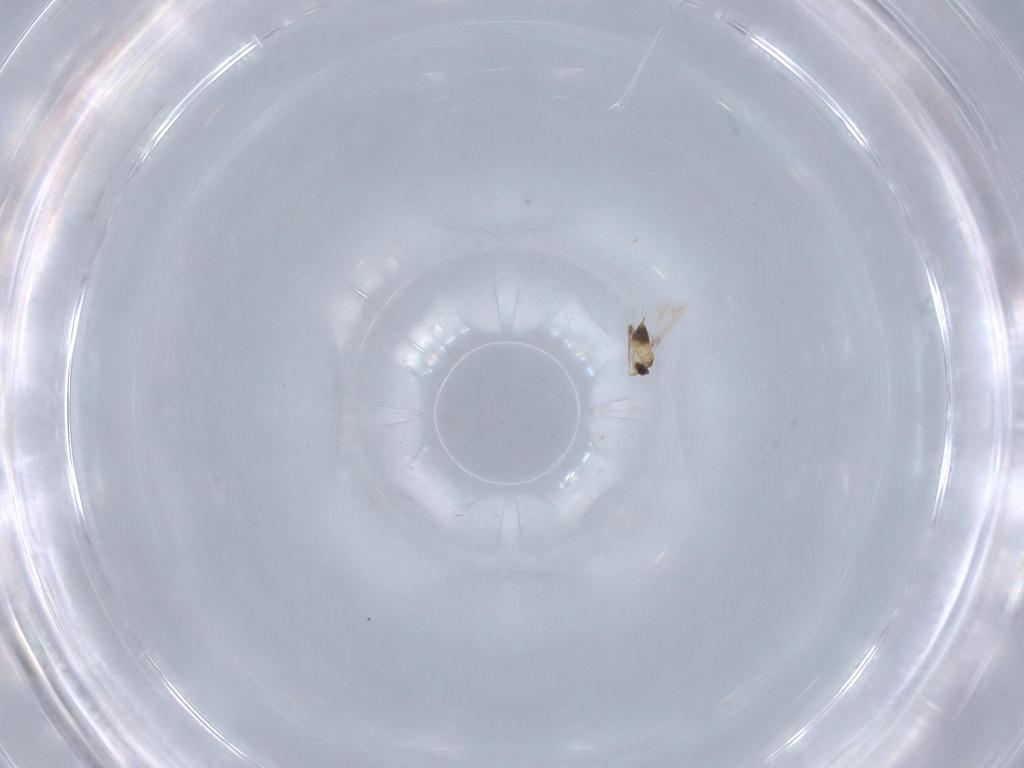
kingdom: Animalia
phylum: Arthropoda
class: Insecta
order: Hymenoptera
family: Mymaridae
